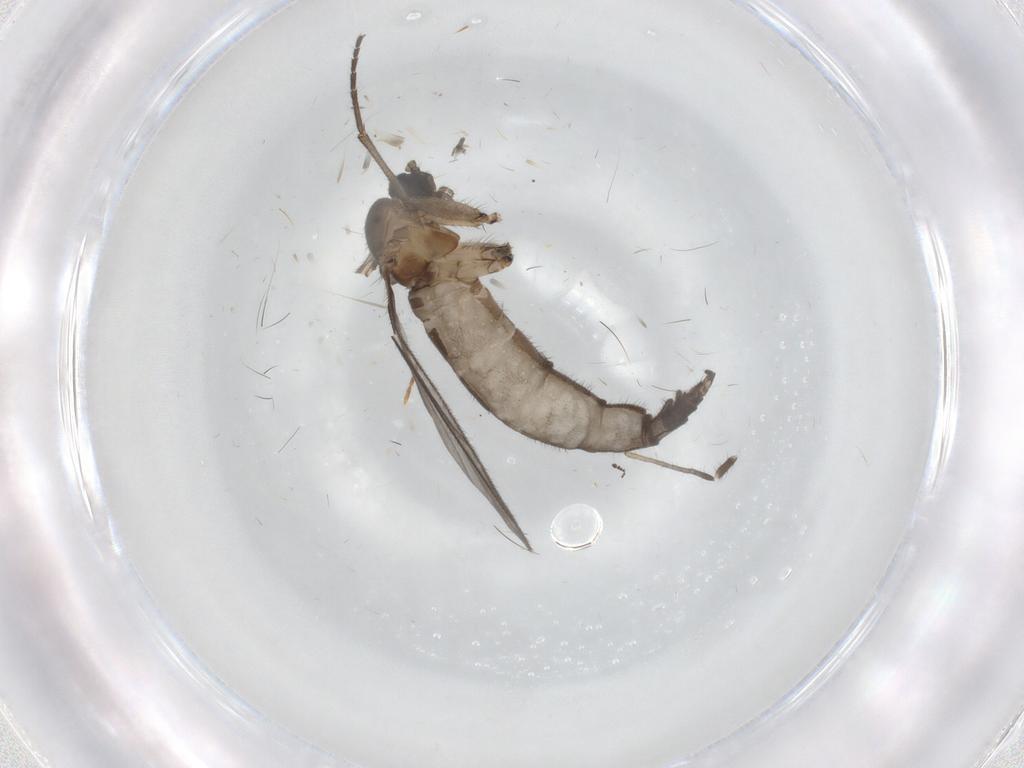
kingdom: Animalia
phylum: Arthropoda
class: Insecta
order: Diptera
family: Sciaridae
